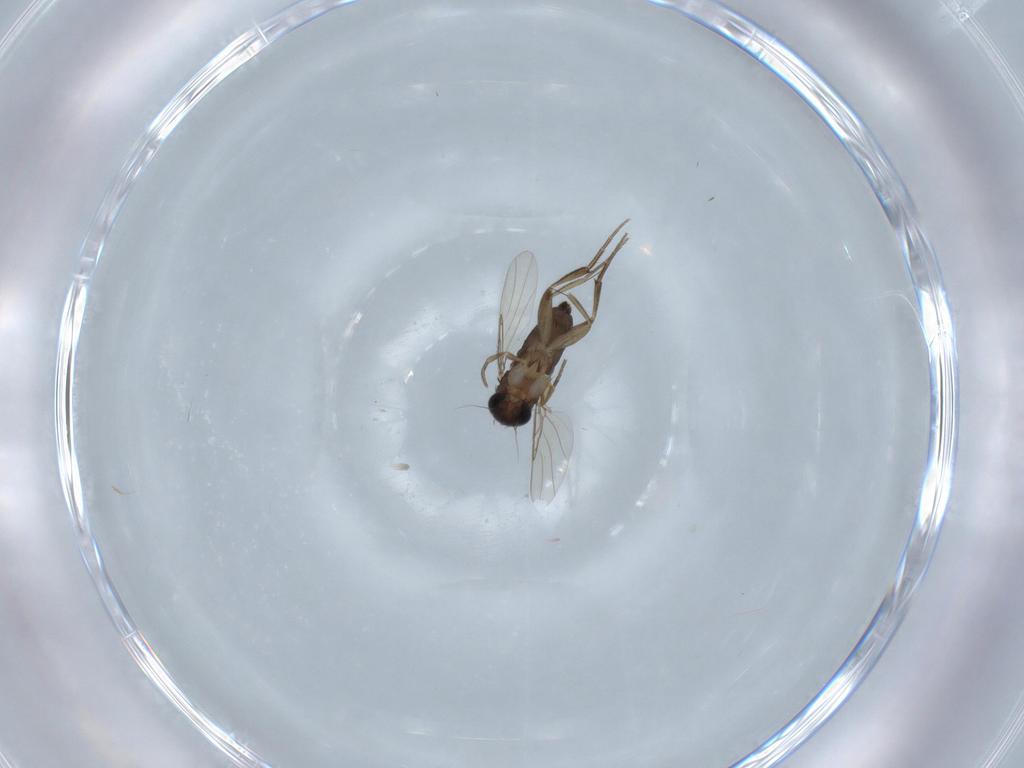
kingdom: Animalia
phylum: Arthropoda
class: Insecta
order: Diptera
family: Phoridae
